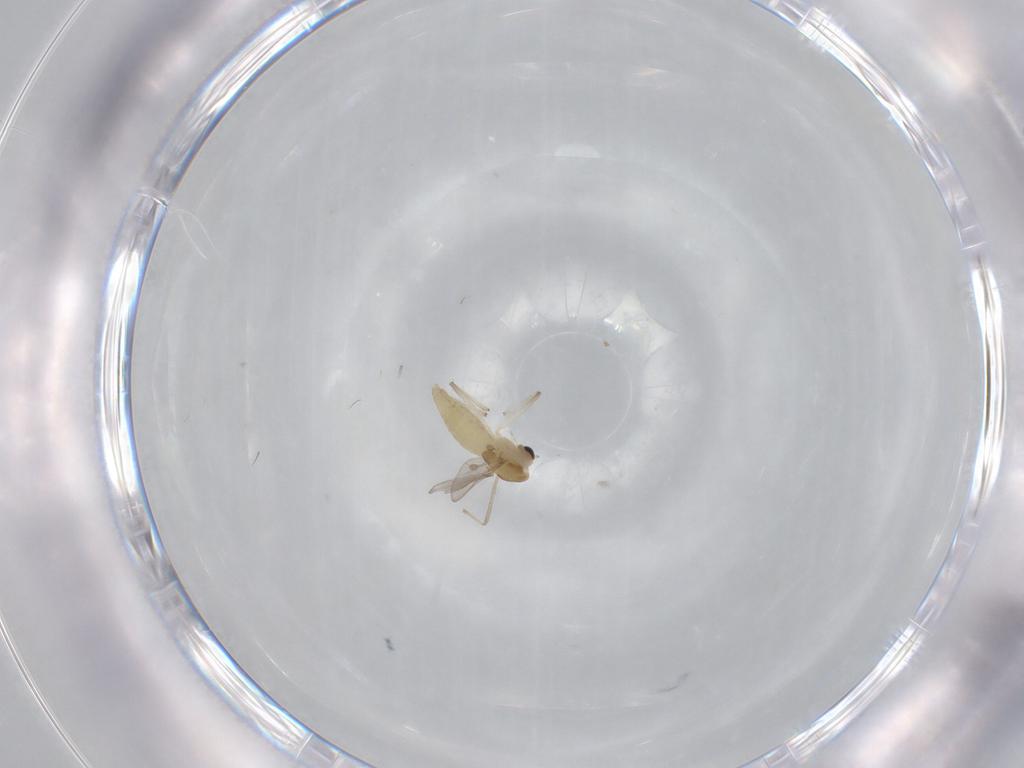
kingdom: Animalia
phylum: Arthropoda
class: Insecta
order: Diptera
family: Chironomidae
